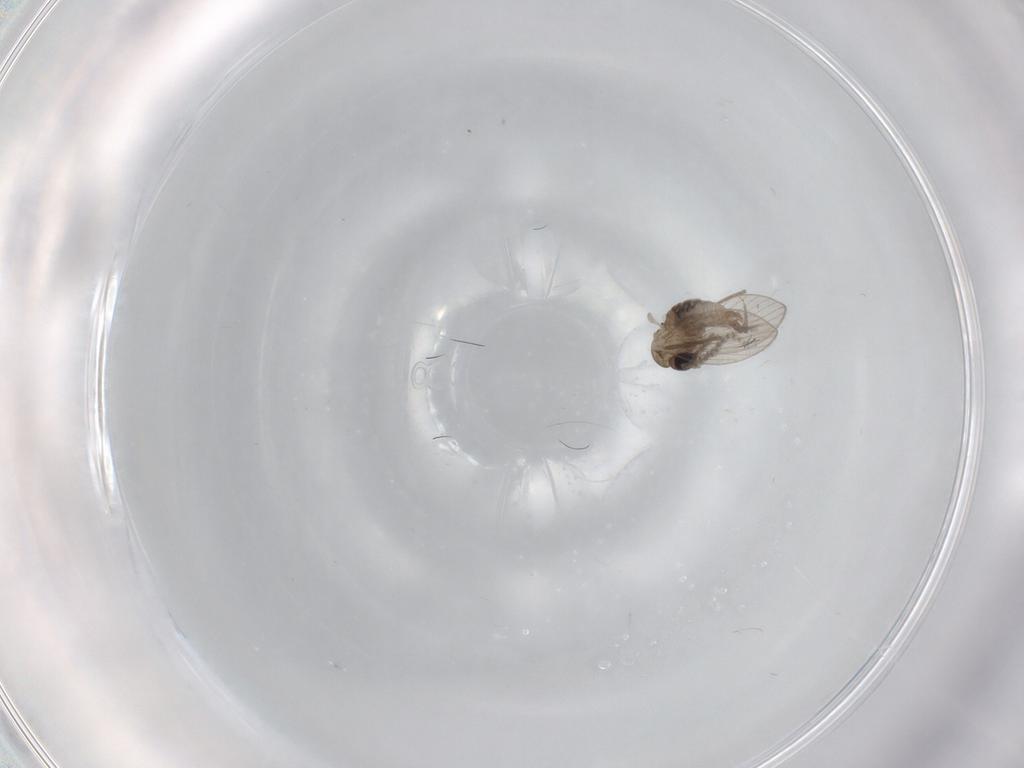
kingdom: Animalia
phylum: Arthropoda
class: Insecta
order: Diptera
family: Psychodidae
